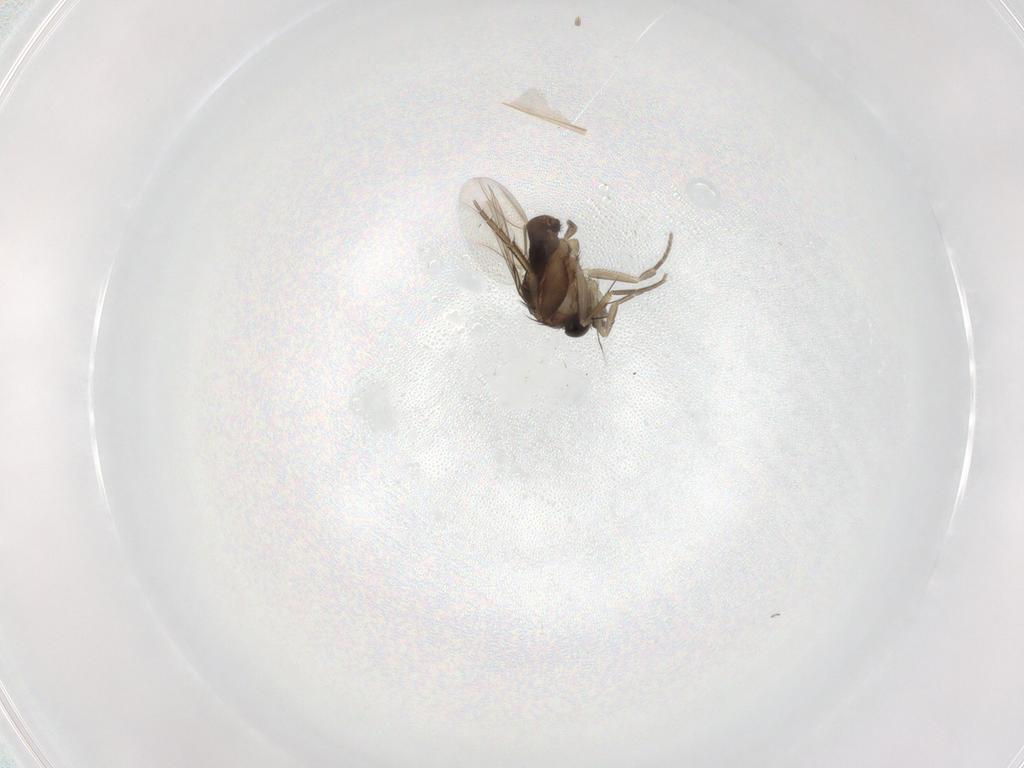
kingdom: Animalia
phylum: Arthropoda
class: Insecta
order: Diptera
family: Phoridae
